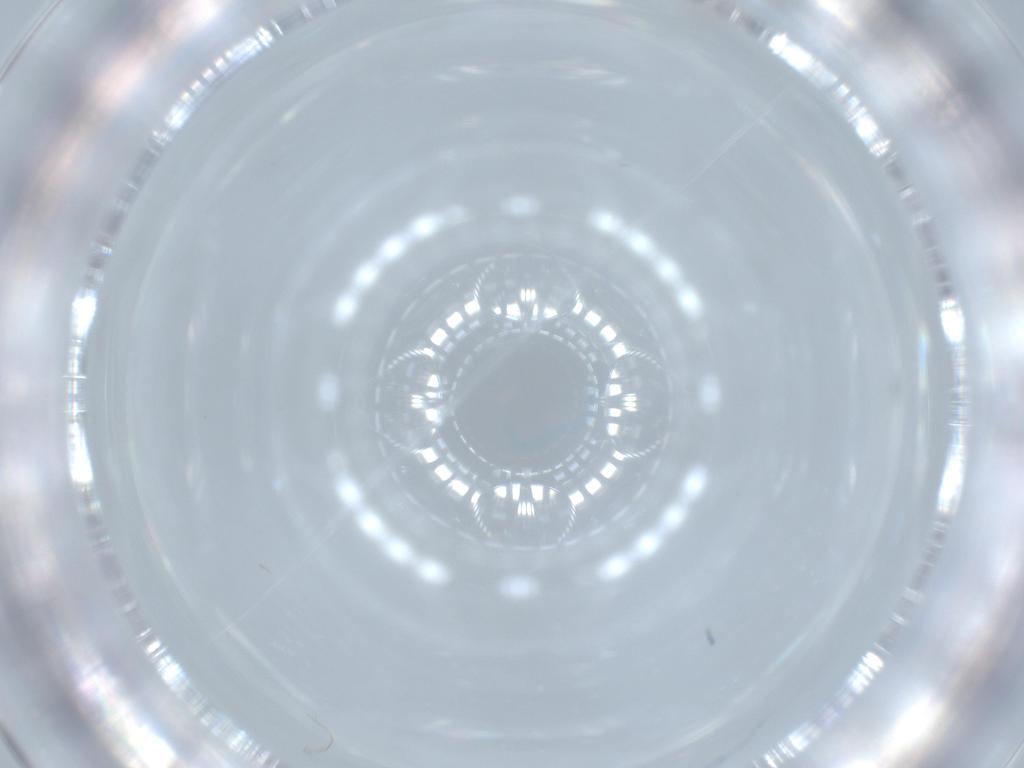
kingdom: Animalia
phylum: Arthropoda
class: Insecta
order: Diptera
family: Cecidomyiidae
